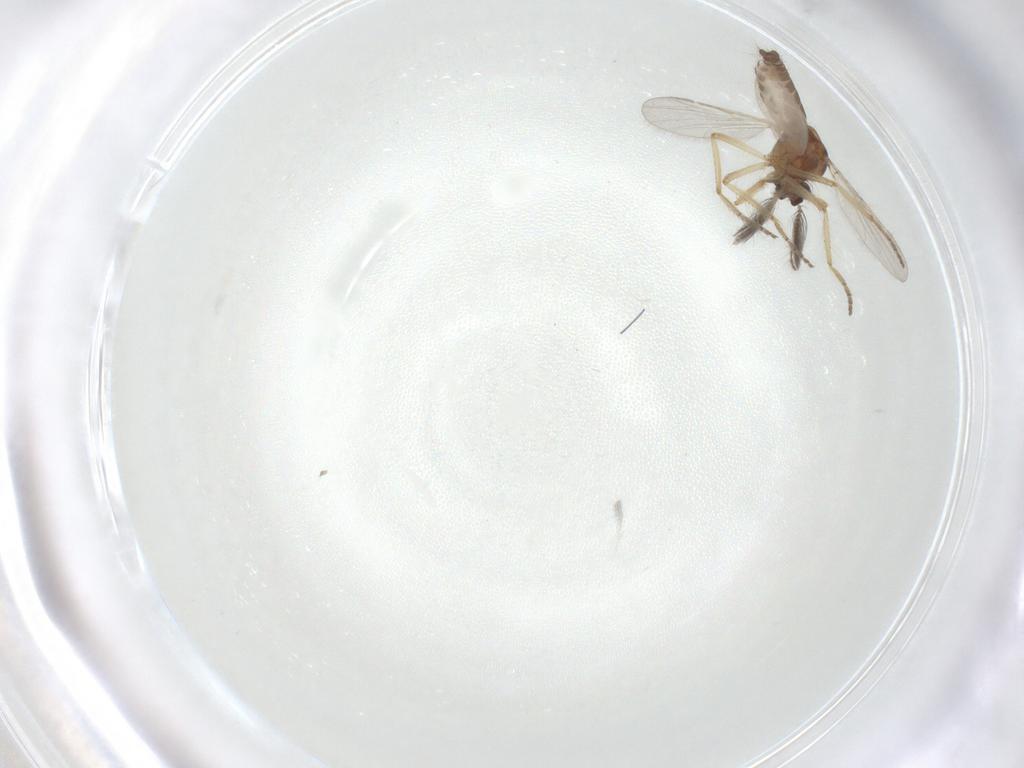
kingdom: Animalia
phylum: Arthropoda
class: Insecta
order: Diptera
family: Phoridae
